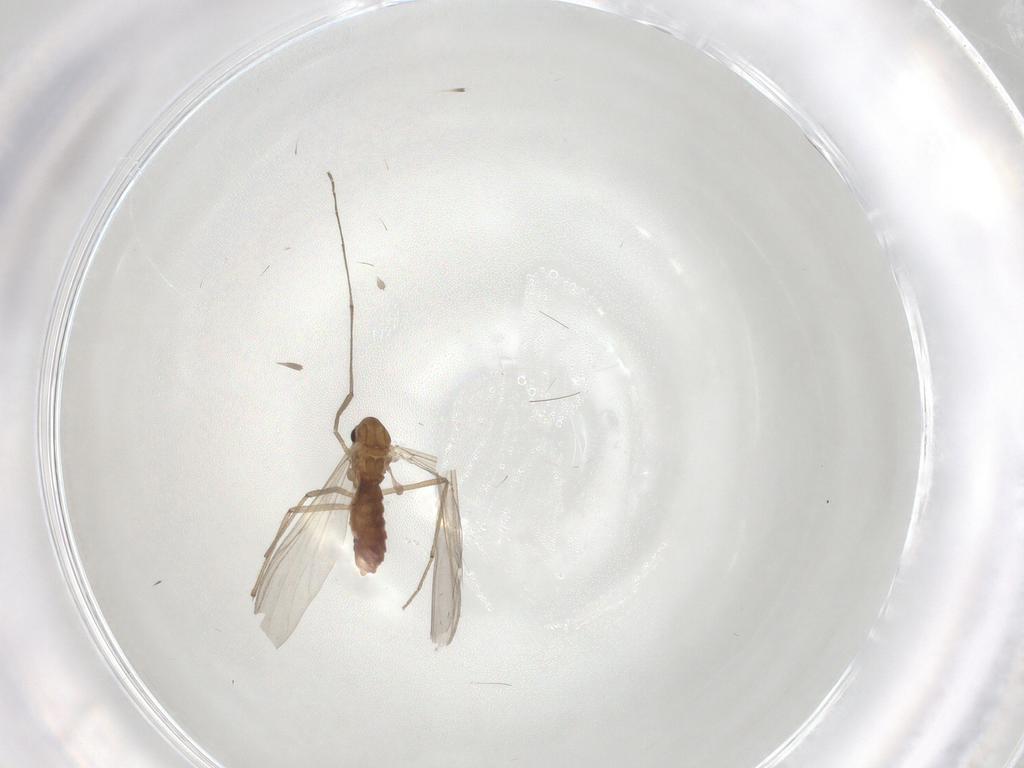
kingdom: Animalia
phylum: Arthropoda
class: Insecta
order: Diptera
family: Chironomidae
